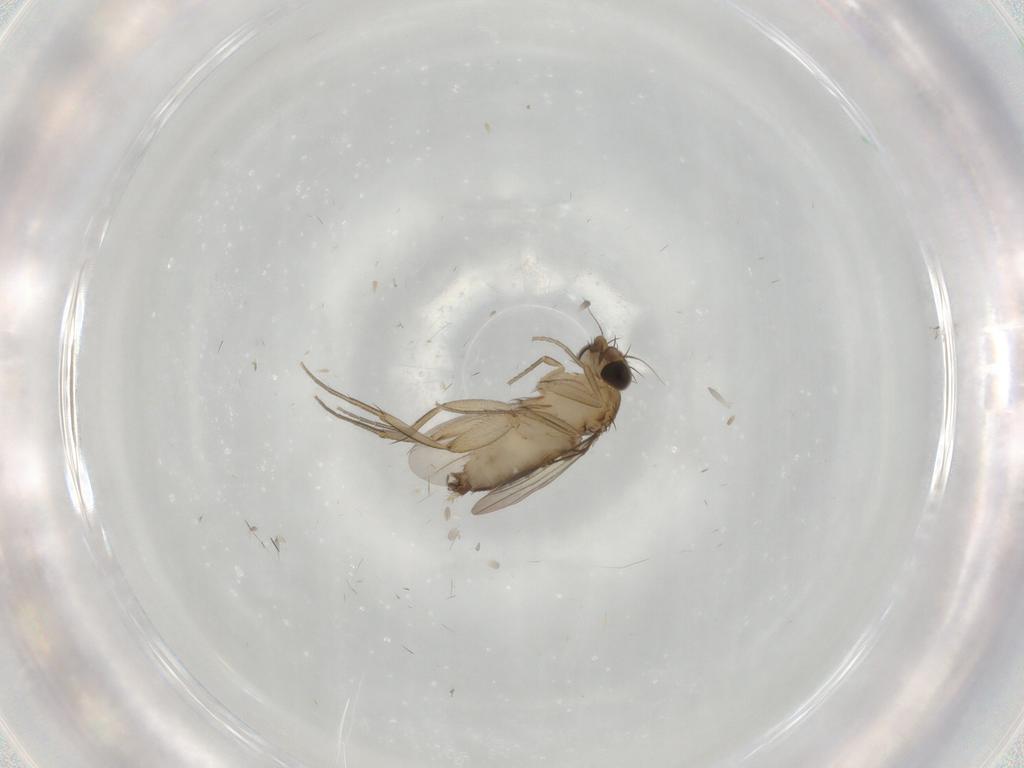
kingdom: Animalia
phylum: Arthropoda
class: Insecta
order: Diptera
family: Phoridae
